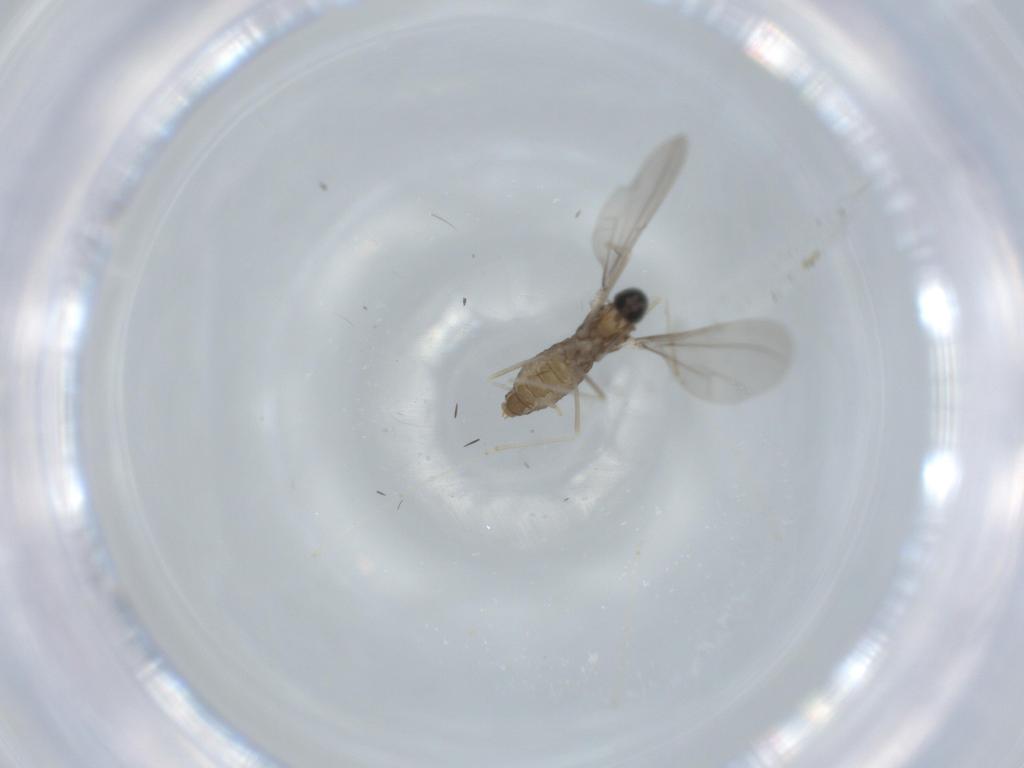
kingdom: Animalia
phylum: Arthropoda
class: Insecta
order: Diptera
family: Cecidomyiidae
